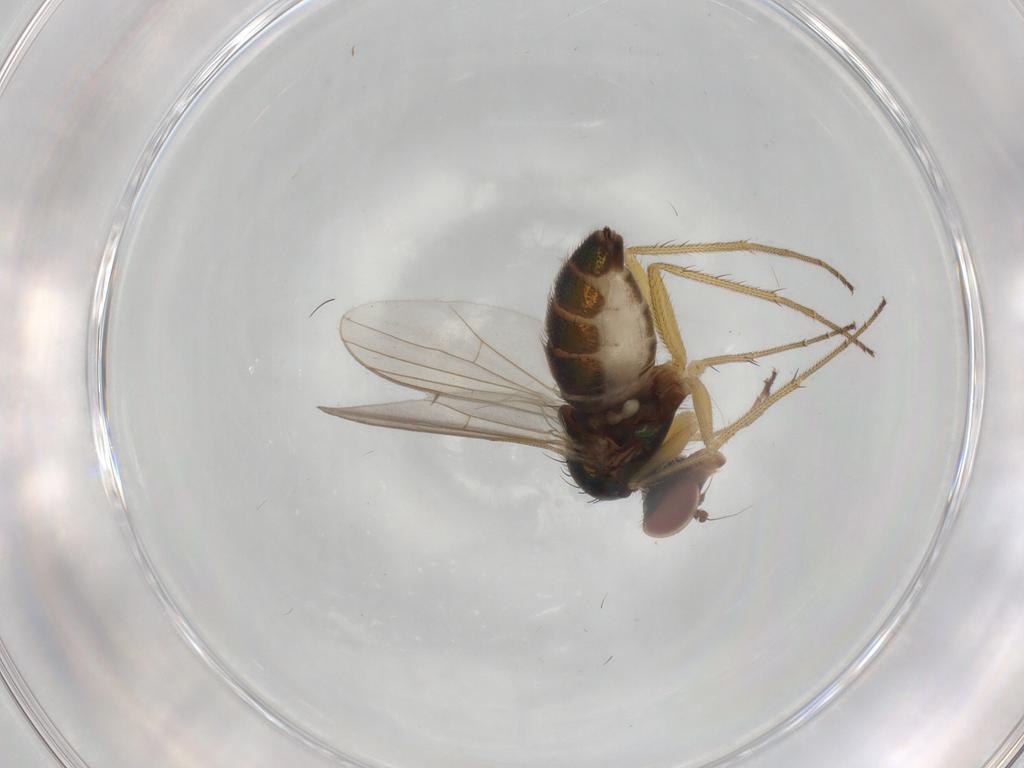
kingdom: Animalia
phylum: Arthropoda
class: Insecta
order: Diptera
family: Dolichopodidae
